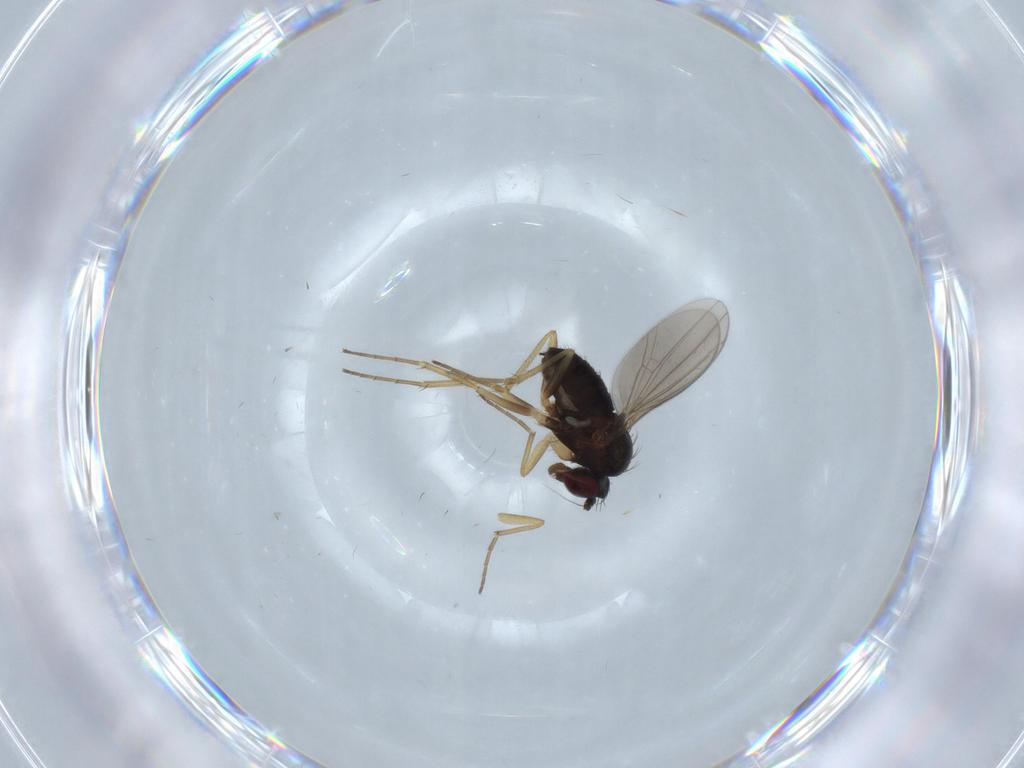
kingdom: Animalia
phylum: Arthropoda
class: Insecta
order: Diptera
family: Dolichopodidae
